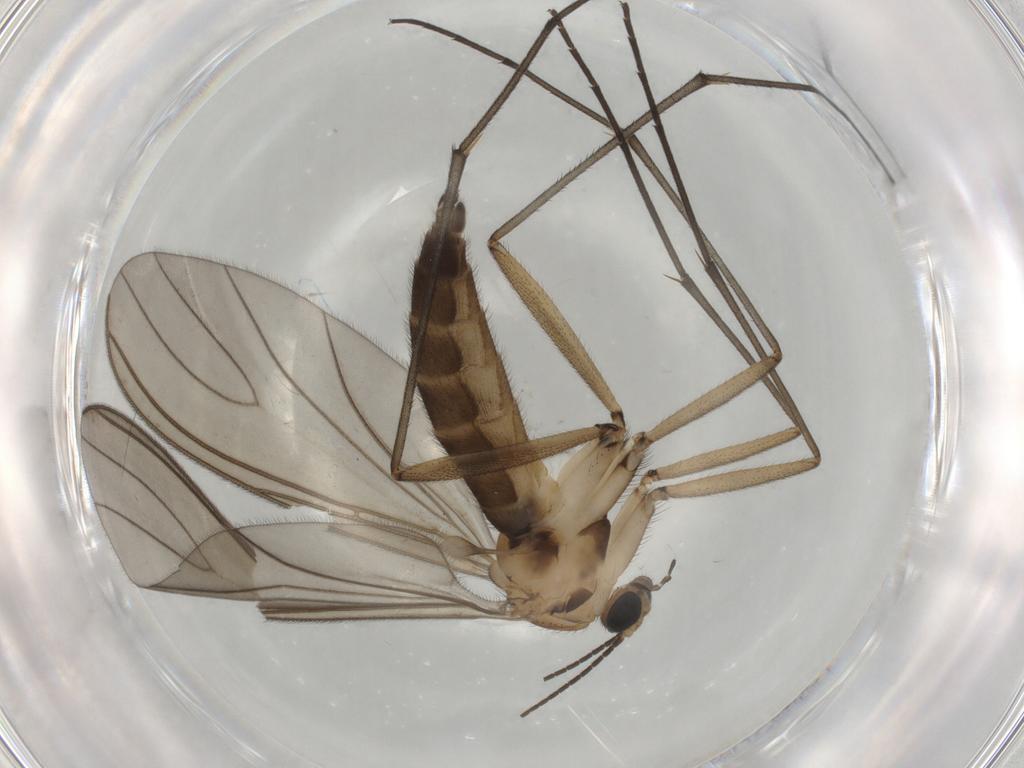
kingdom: Animalia
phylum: Arthropoda
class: Insecta
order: Diptera
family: Sciaridae
